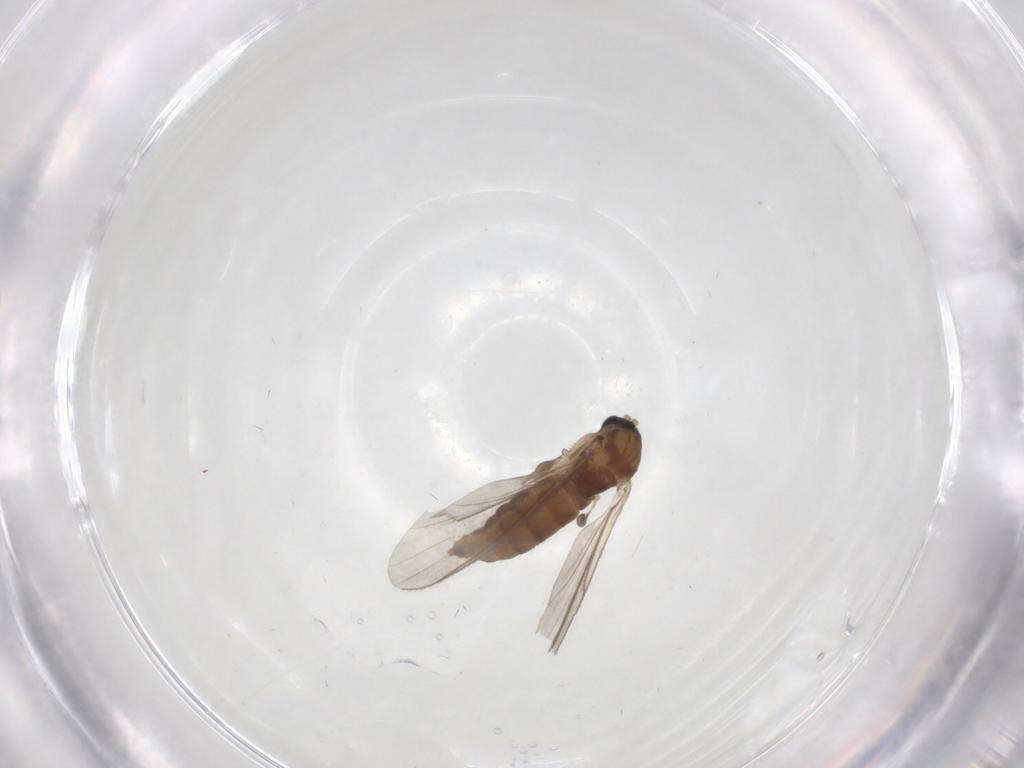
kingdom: Animalia
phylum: Arthropoda
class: Insecta
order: Diptera
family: Sciaridae
